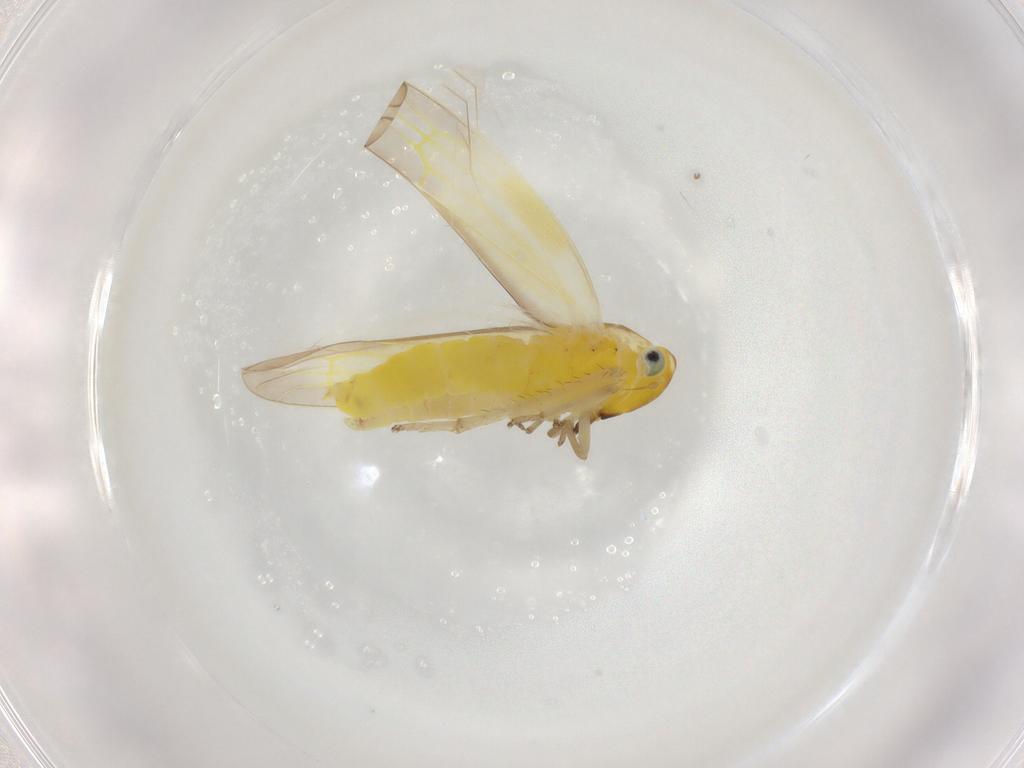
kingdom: Animalia
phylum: Arthropoda
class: Insecta
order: Hemiptera
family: Cicadellidae
